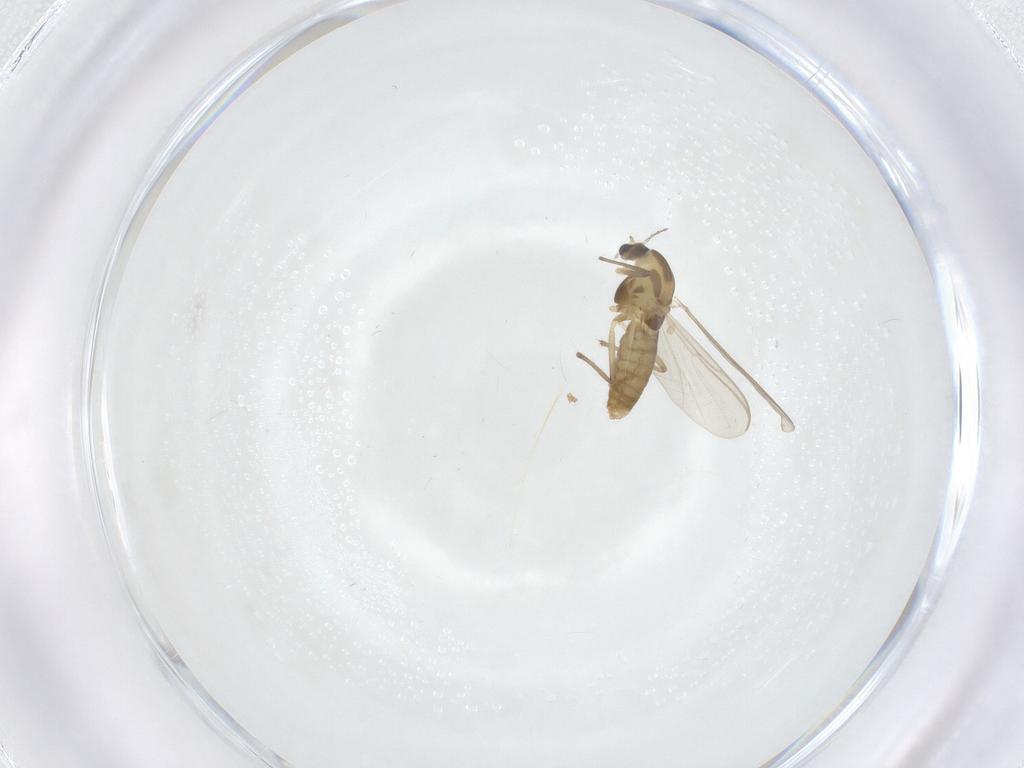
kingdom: Animalia
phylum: Arthropoda
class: Insecta
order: Diptera
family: Chironomidae
